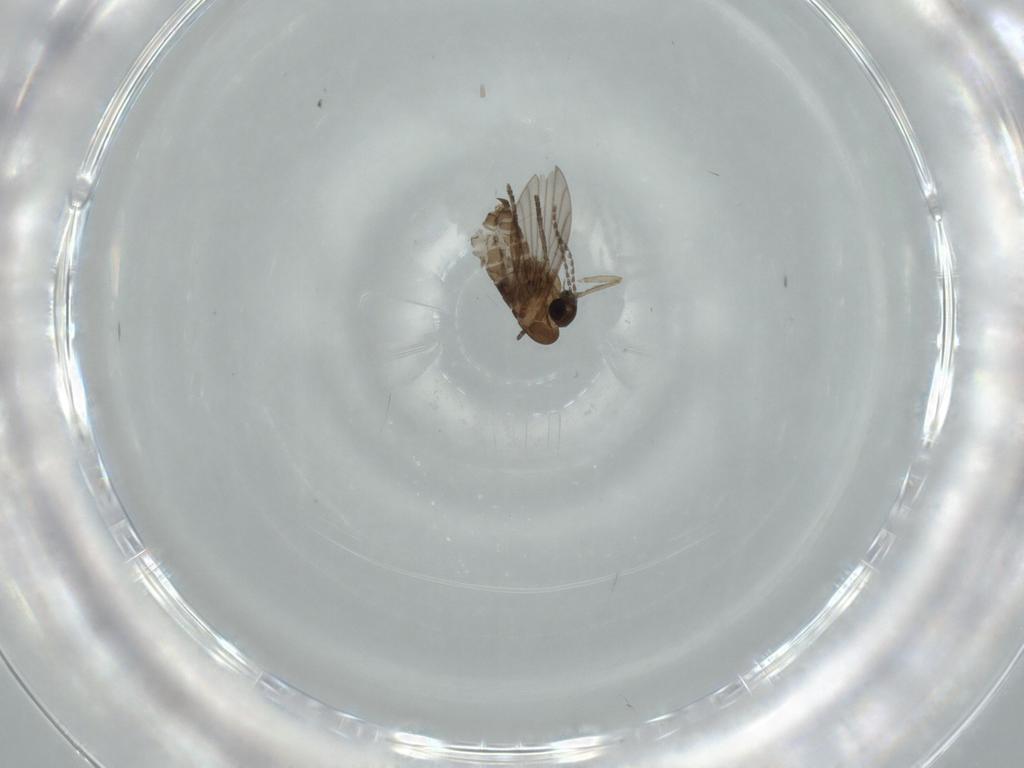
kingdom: Animalia
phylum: Arthropoda
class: Insecta
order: Diptera
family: Psychodidae
